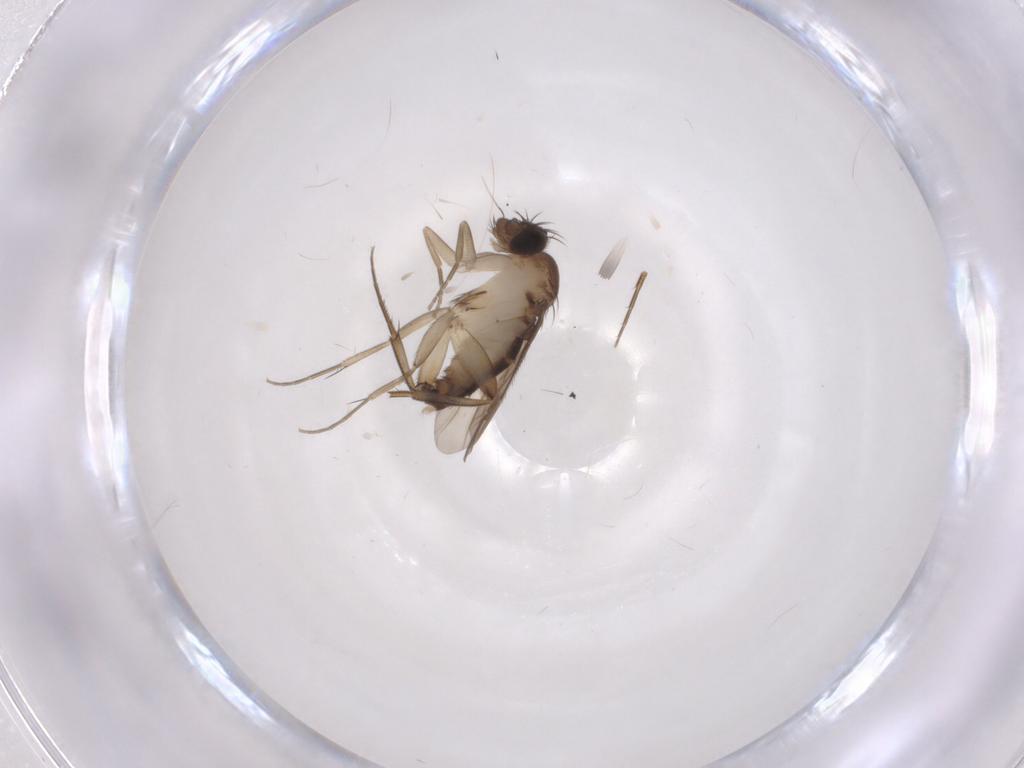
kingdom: Animalia
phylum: Arthropoda
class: Insecta
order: Diptera
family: Phoridae
